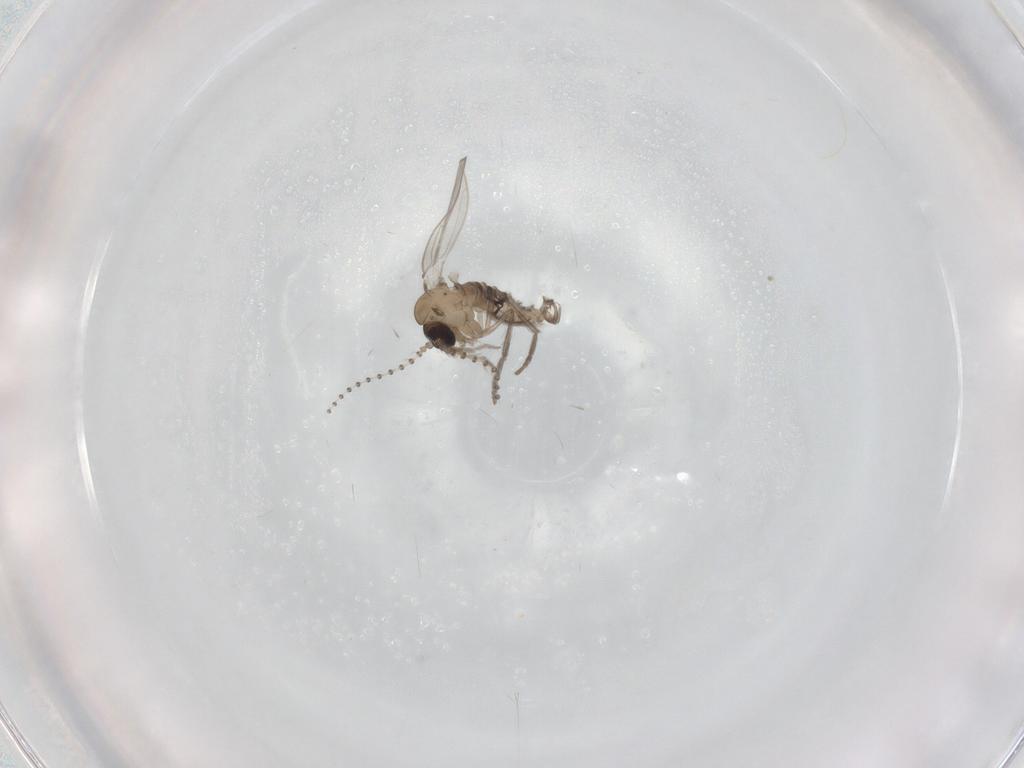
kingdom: Animalia
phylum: Arthropoda
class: Insecta
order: Diptera
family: Psychodidae
